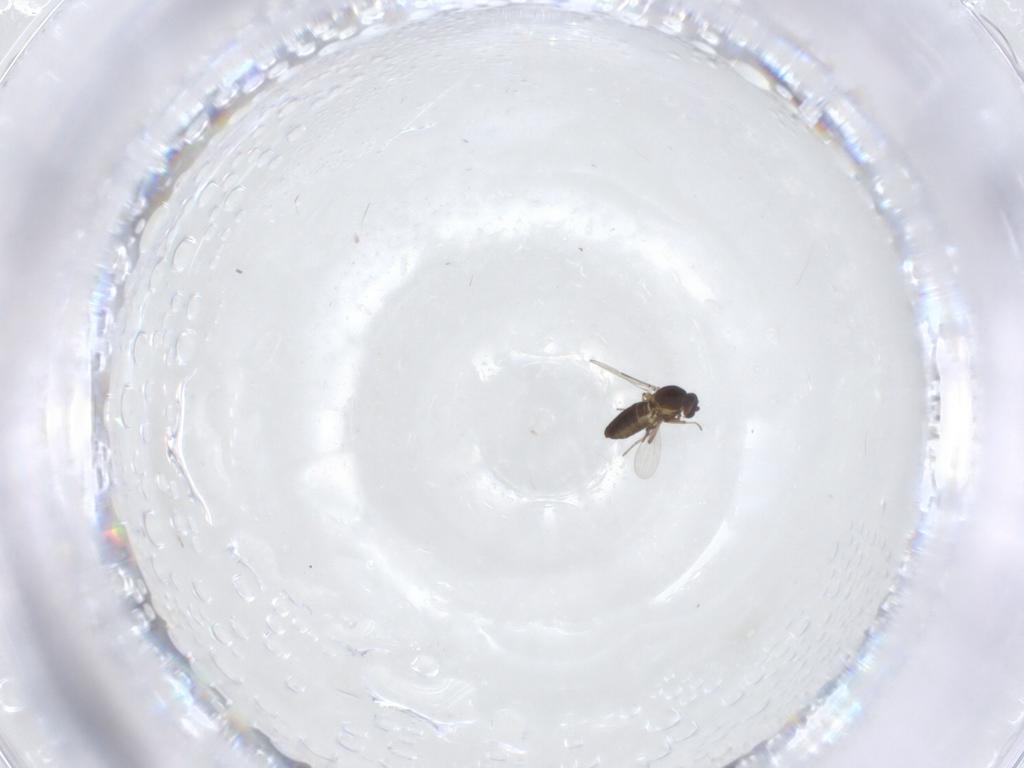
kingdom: Animalia
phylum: Arthropoda
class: Insecta
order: Diptera
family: Ceratopogonidae
